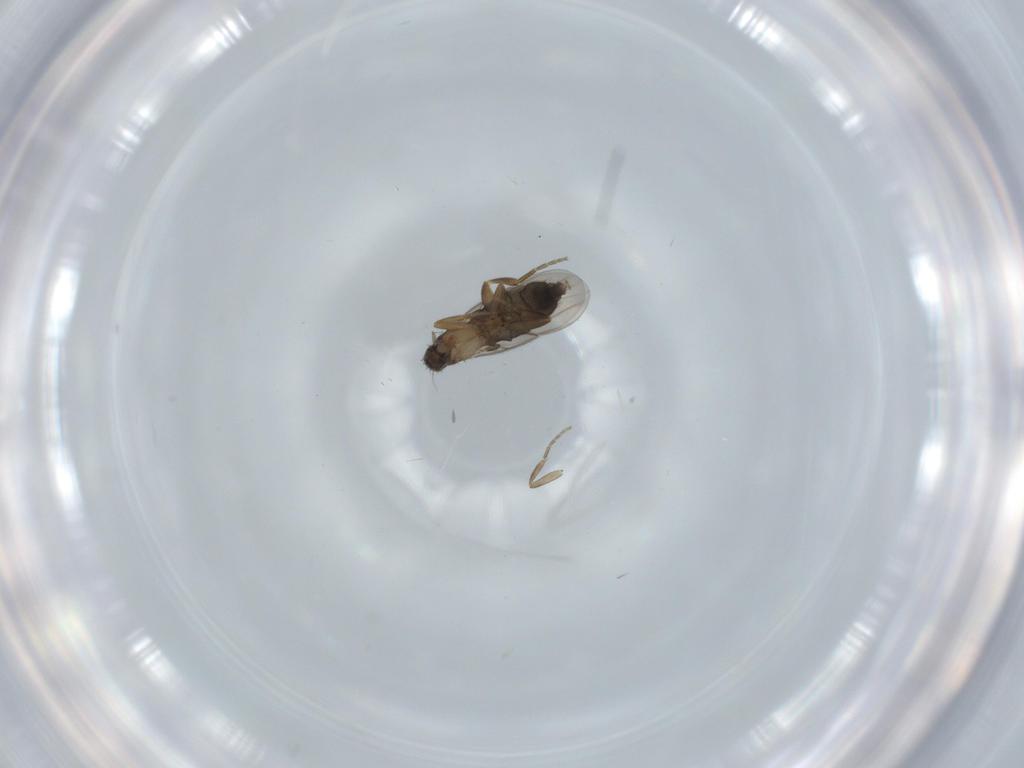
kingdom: Animalia
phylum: Arthropoda
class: Insecta
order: Diptera
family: Phoridae
